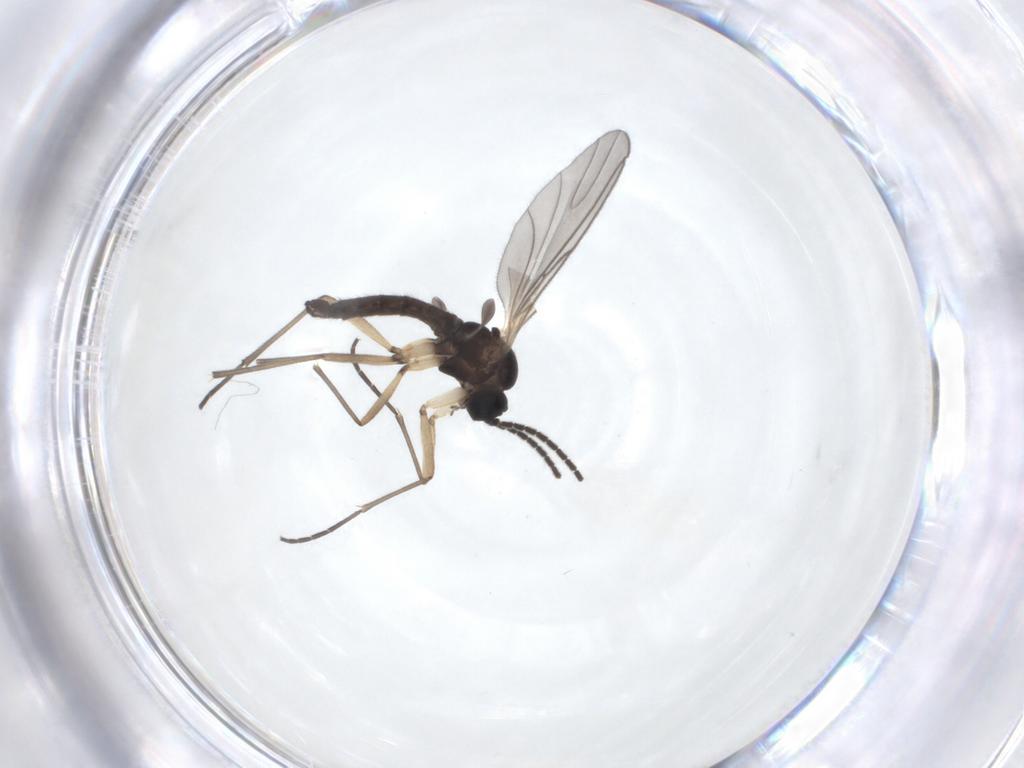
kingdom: Animalia
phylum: Arthropoda
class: Insecta
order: Diptera
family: Sciaridae
